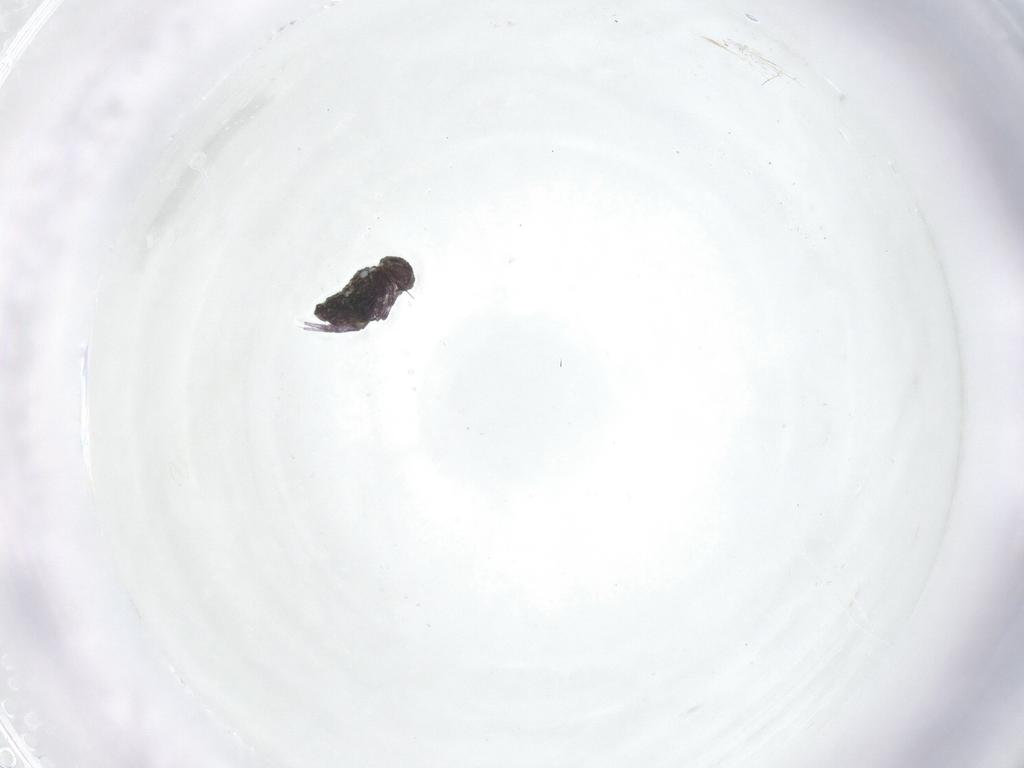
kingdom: Animalia
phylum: Arthropoda
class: Collembola
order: Symphypleona
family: Bourletiellidae
